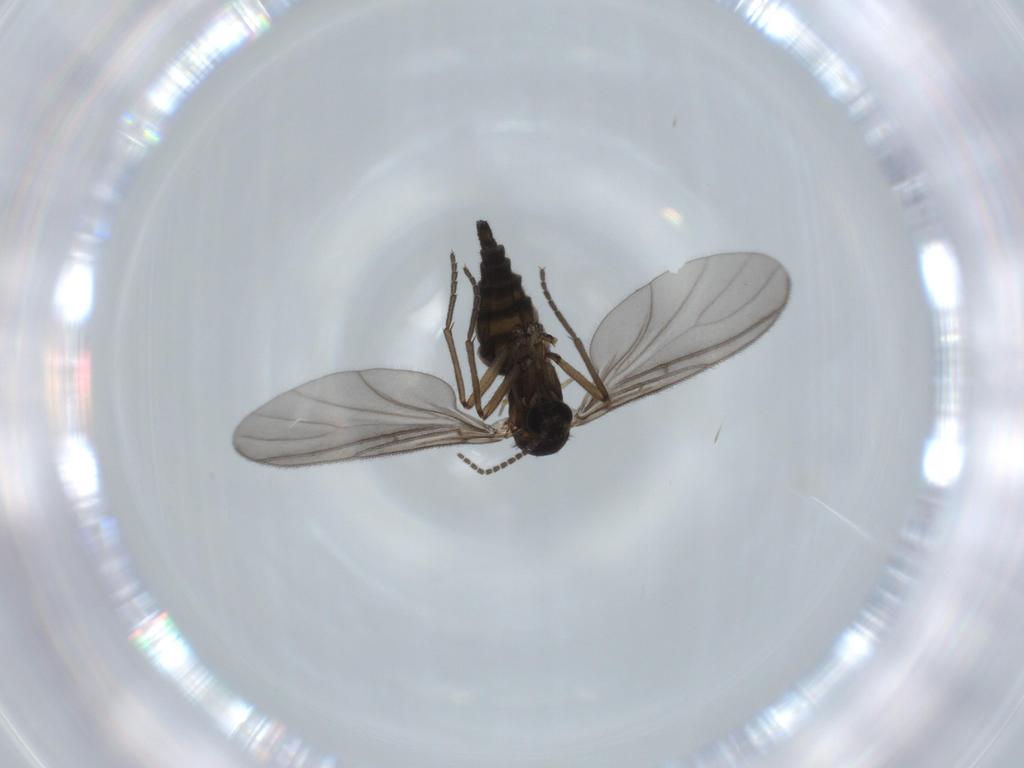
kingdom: Animalia
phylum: Arthropoda
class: Insecta
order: Diptera
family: Sciaridae
